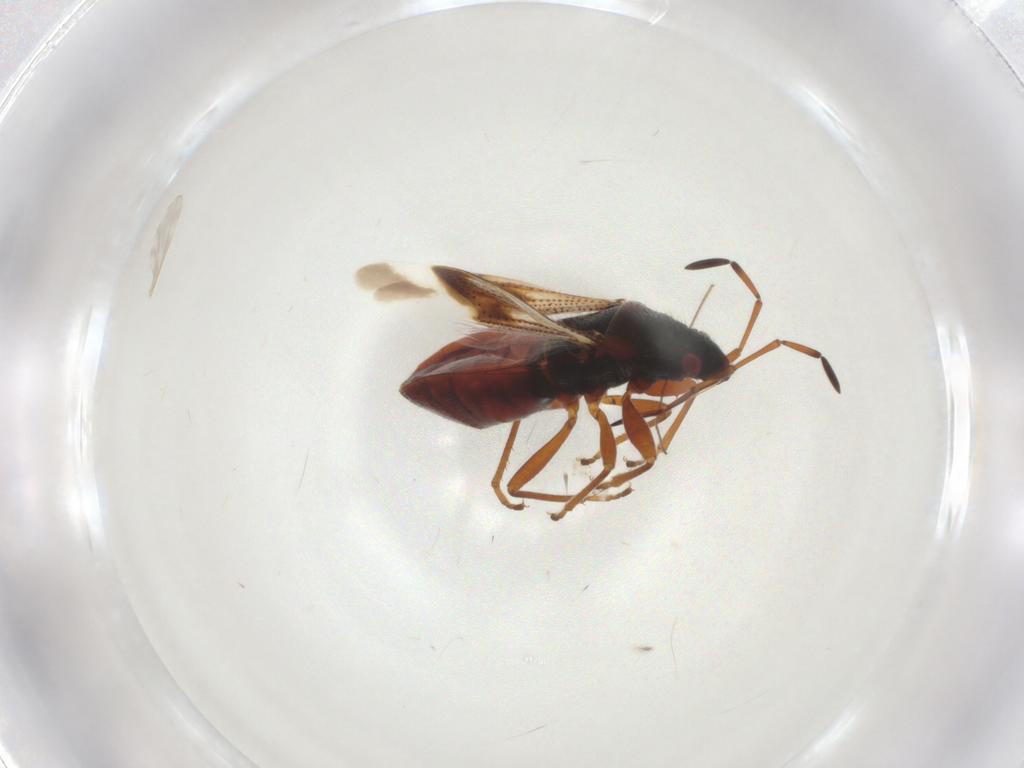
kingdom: Animalia
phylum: Arthropoda
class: Insecta
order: Hemiptera
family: Rhyparochromidae
